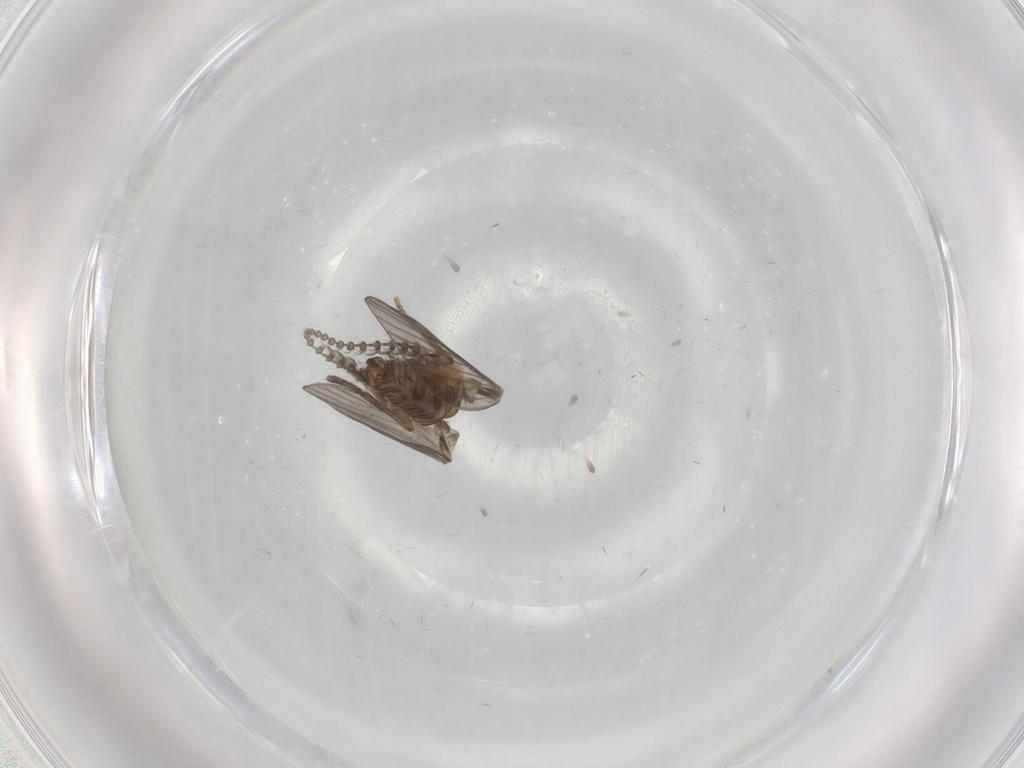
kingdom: Animalia
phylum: Arthropoda
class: Insecta
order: Diptera
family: Psychodidae
